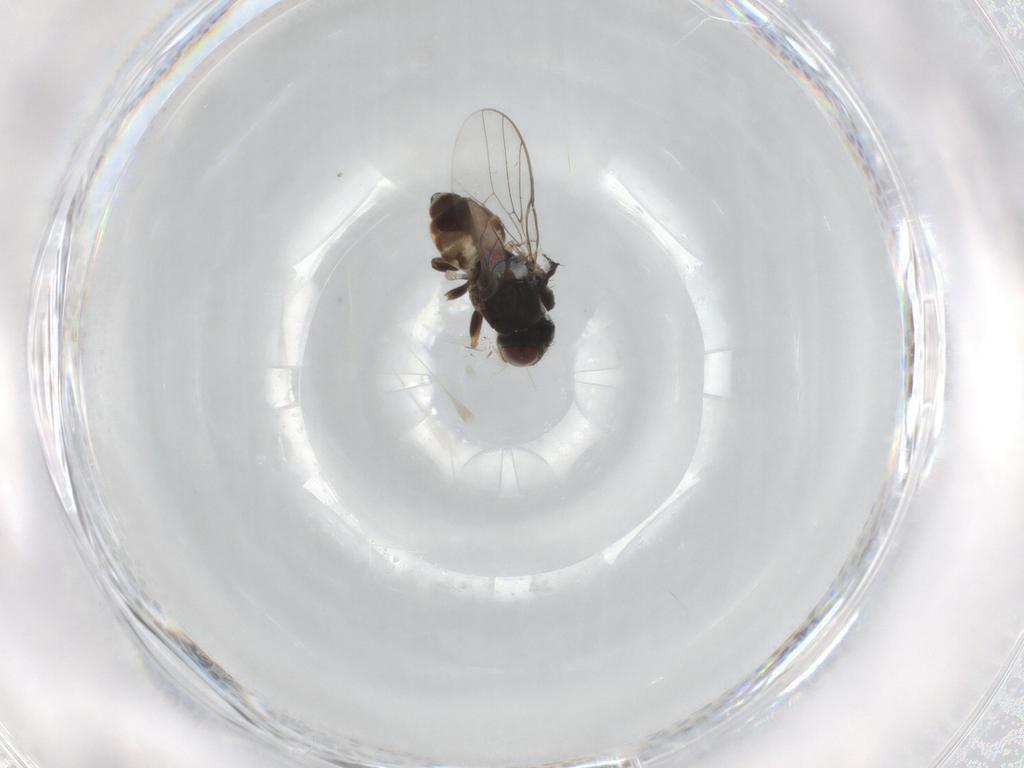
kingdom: Animalia
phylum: Arthropoda
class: Insecta
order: Diptera
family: Chloropidae
